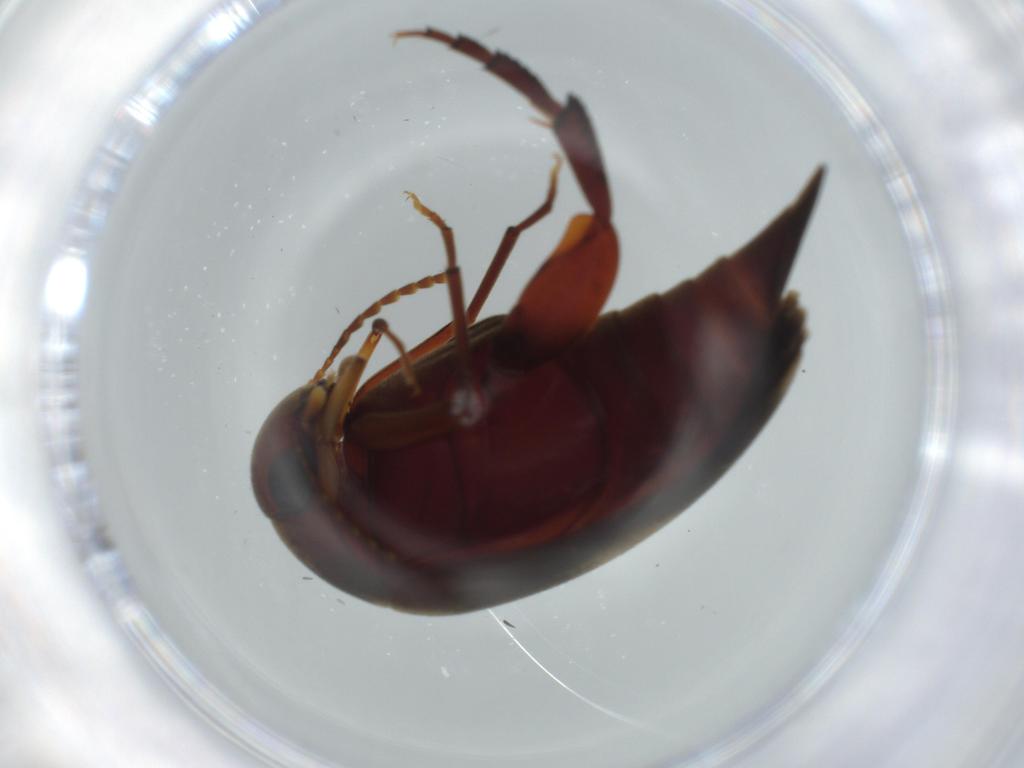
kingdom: Animalia
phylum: Arthropoda
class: Insecta
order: Coleoptera
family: Mordellidae
